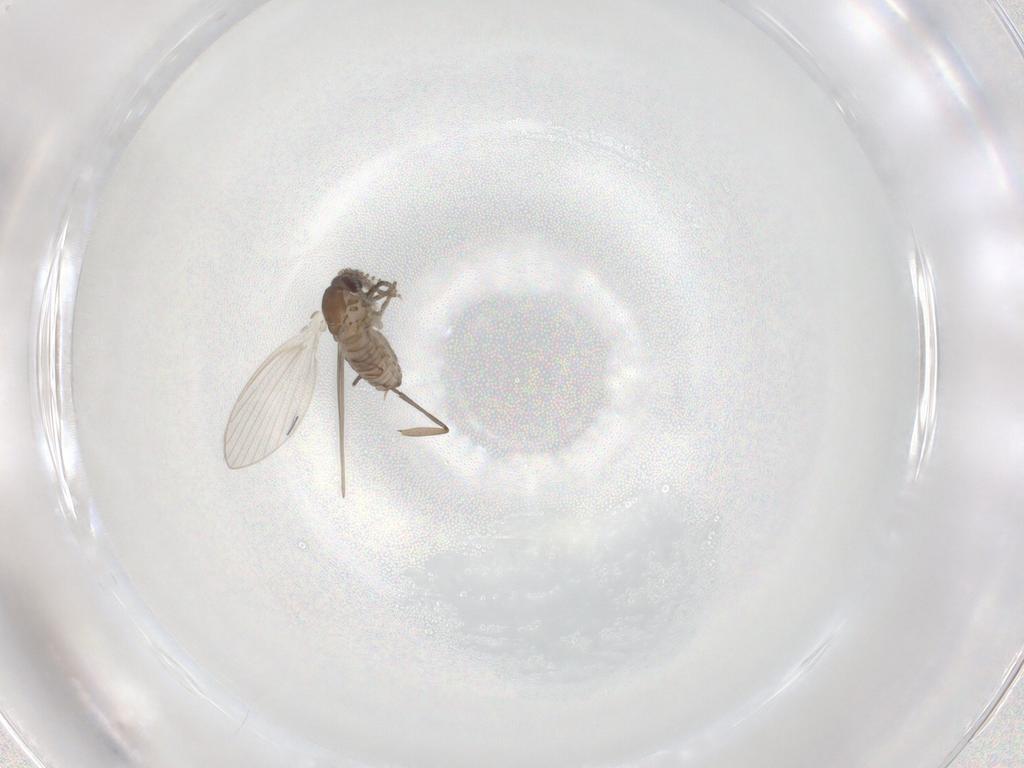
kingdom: Animalia
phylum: Arthropoda
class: Insecta
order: Diptera
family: Psychodidae
